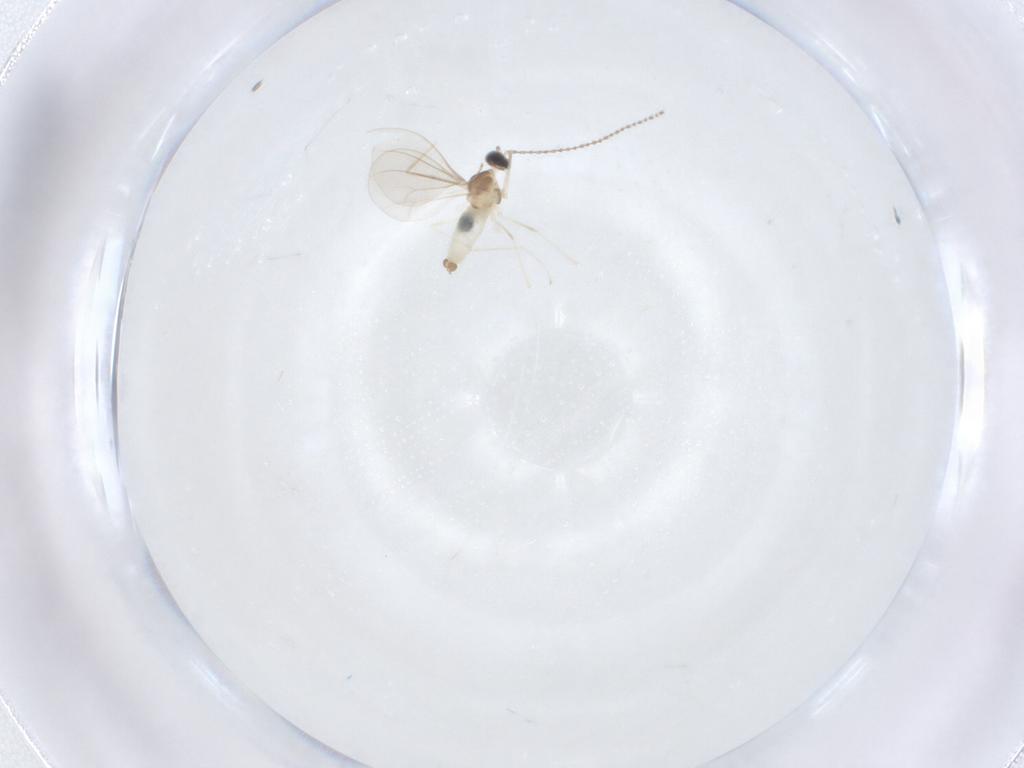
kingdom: Animalia
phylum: Arthropoda
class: Insecta
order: Diptera
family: Cecidomyiidae
